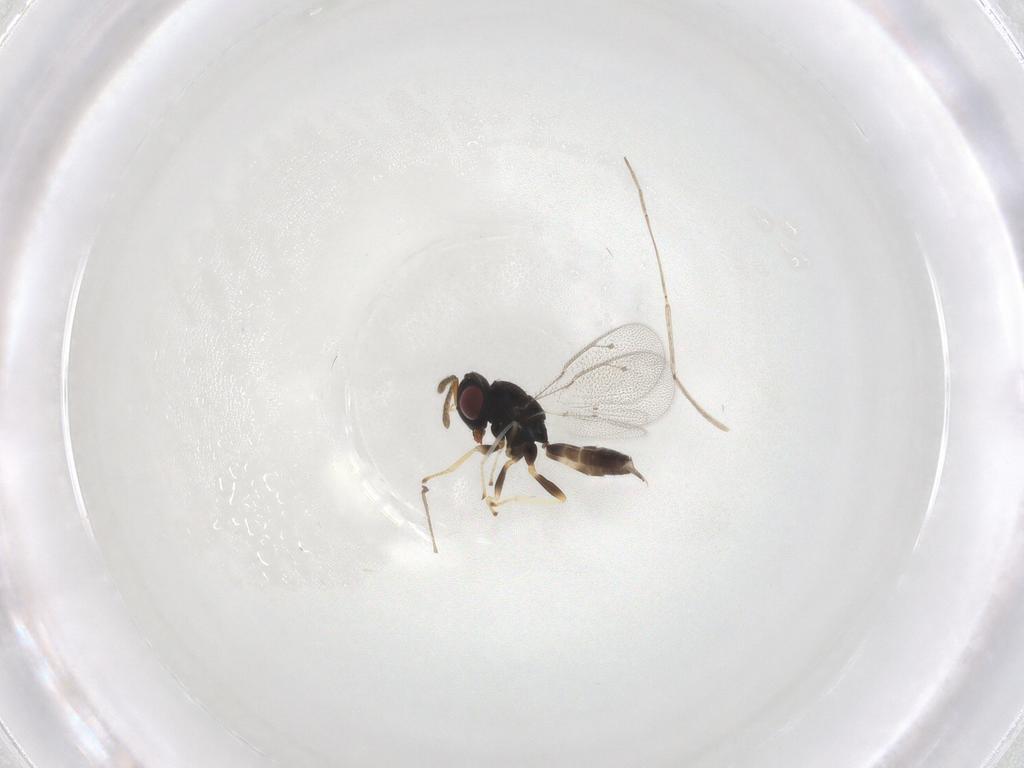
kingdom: Animalia
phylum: Arthropoda
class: Insecta
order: Hymenoptera
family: Pteromalidae
